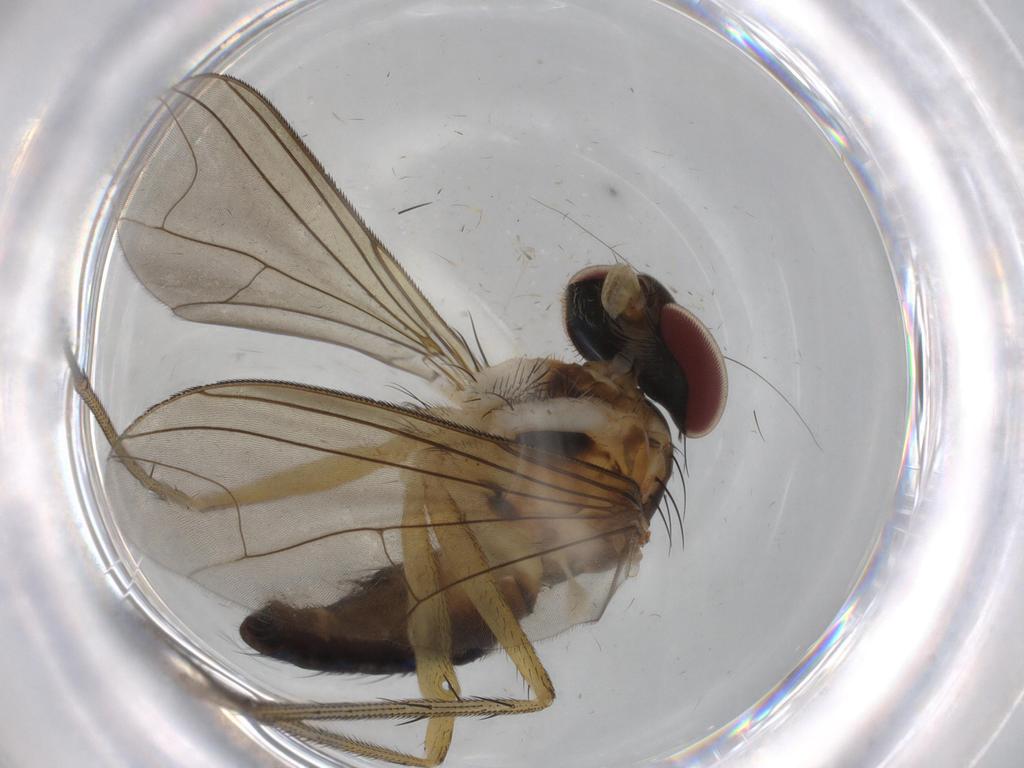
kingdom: Animalia
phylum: Arthropoda
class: Insecta
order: Diptera
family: Dolichopodidae
